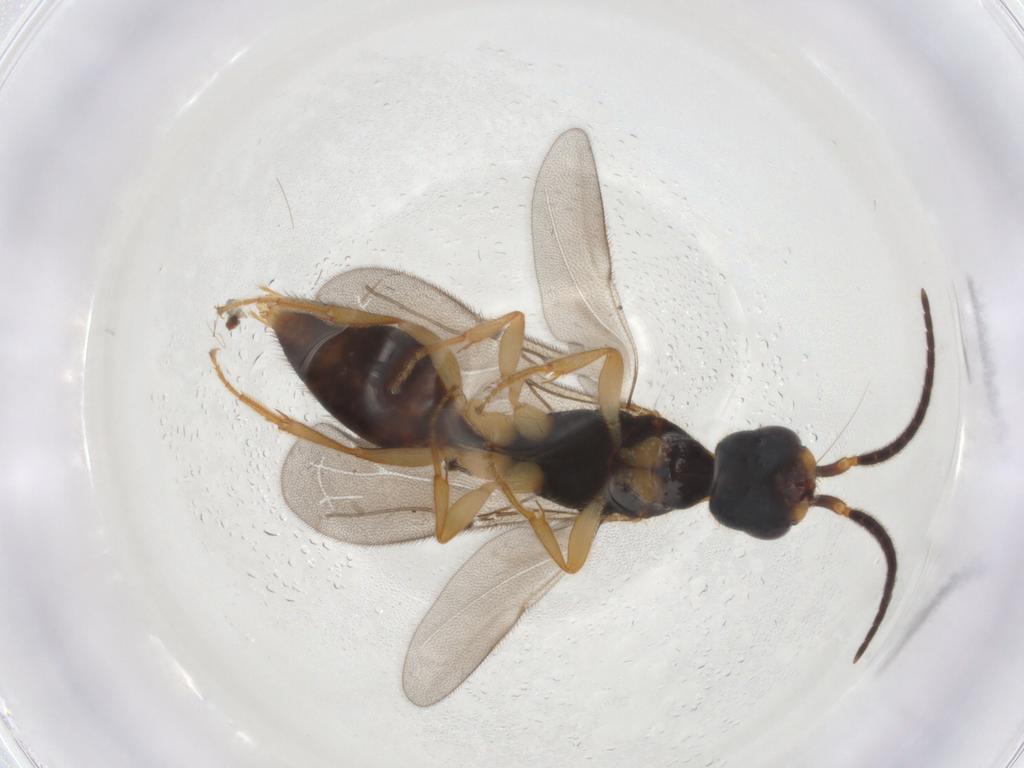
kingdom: Animalia
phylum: Arthropoda
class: Insecta
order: Hymenoptera
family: Bethylidae
